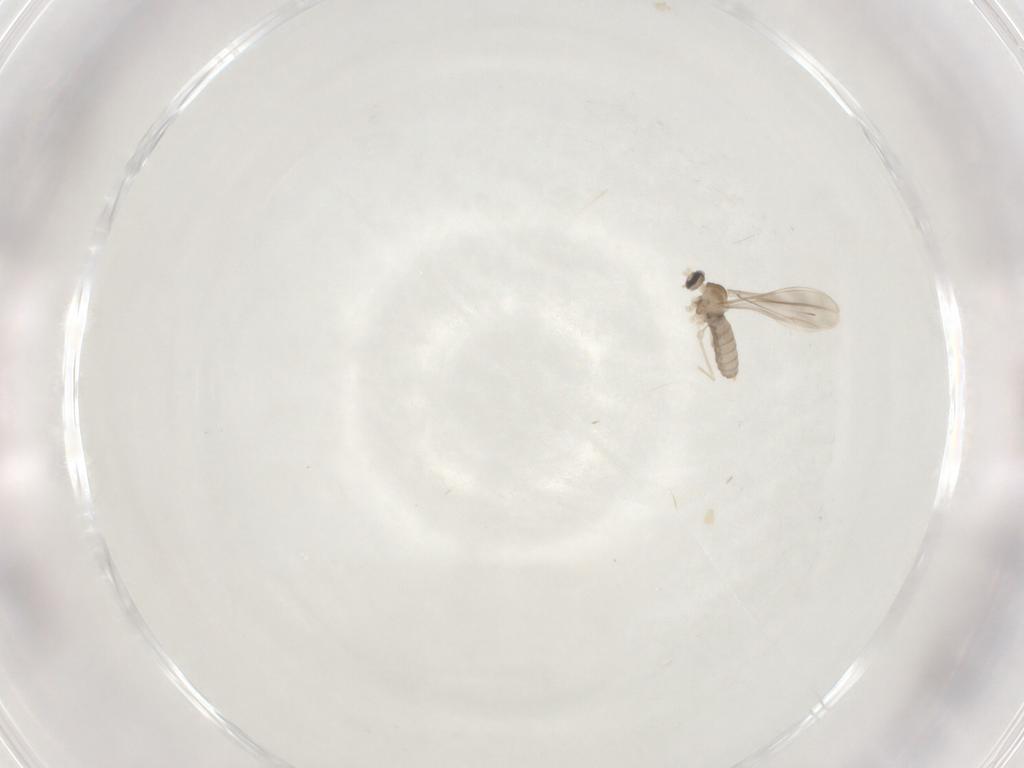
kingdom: Animalia
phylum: Arthropoda
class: Insecta
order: Diptera
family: Cecidomyiidae
